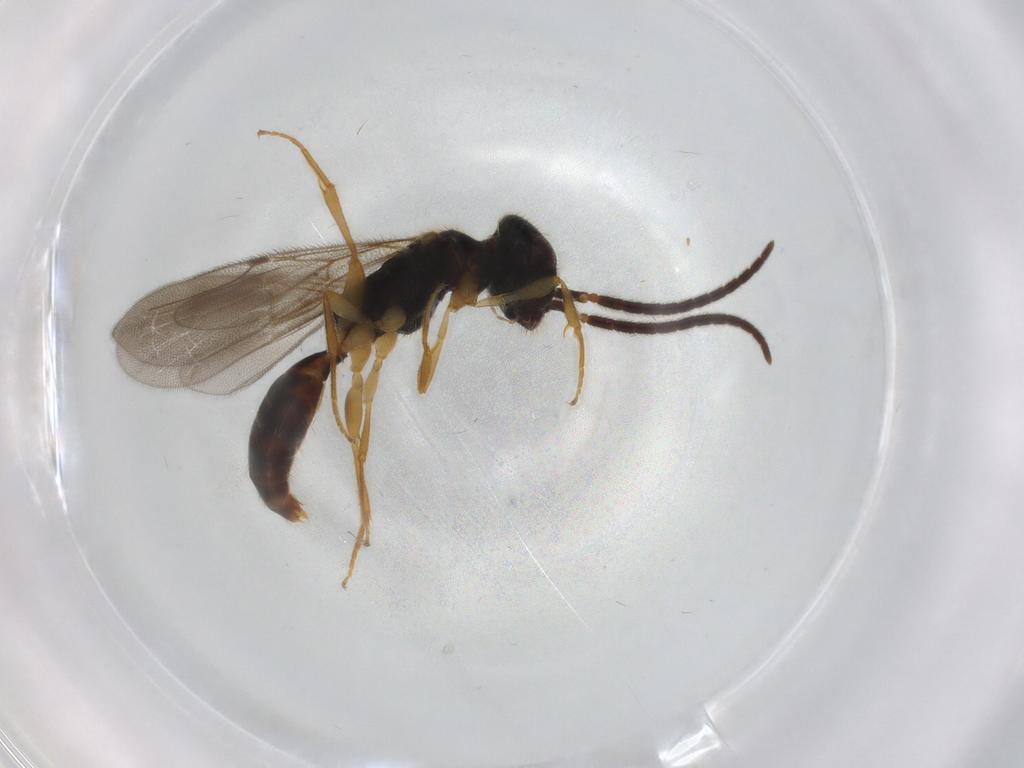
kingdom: Animalia
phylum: Arthropoda
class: Insecta
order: Hymenoptera
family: Bethylidae
